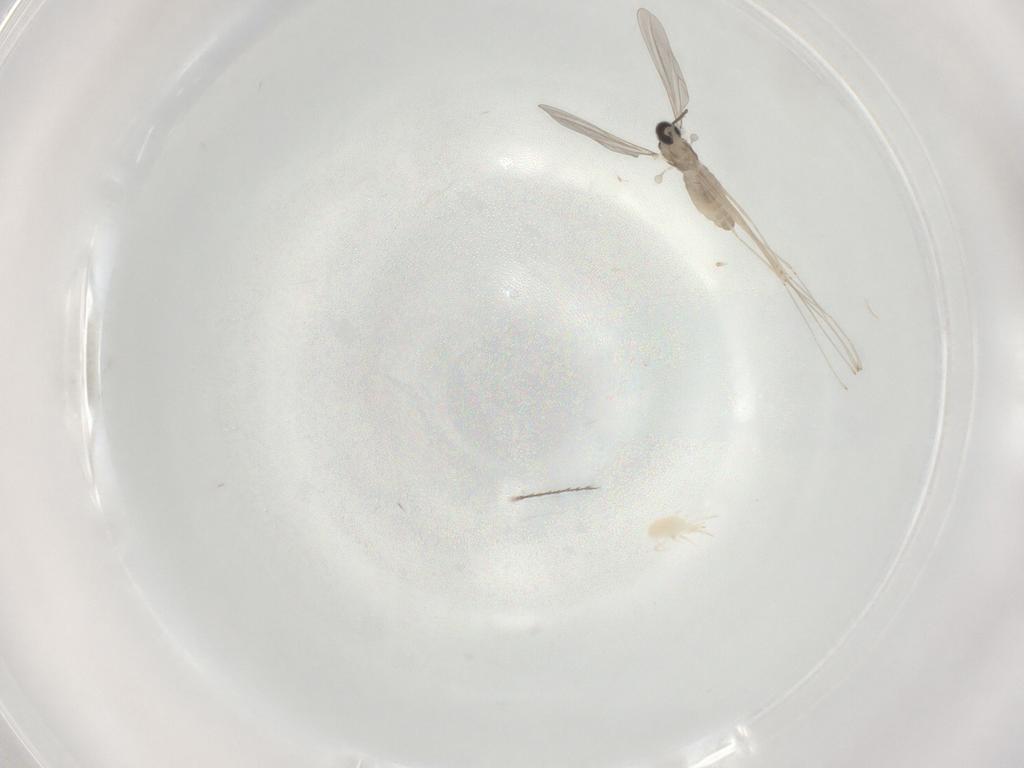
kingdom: Animalia
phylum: Arthropoda
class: Insecta
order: Diptera
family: Cecidomyiidae
